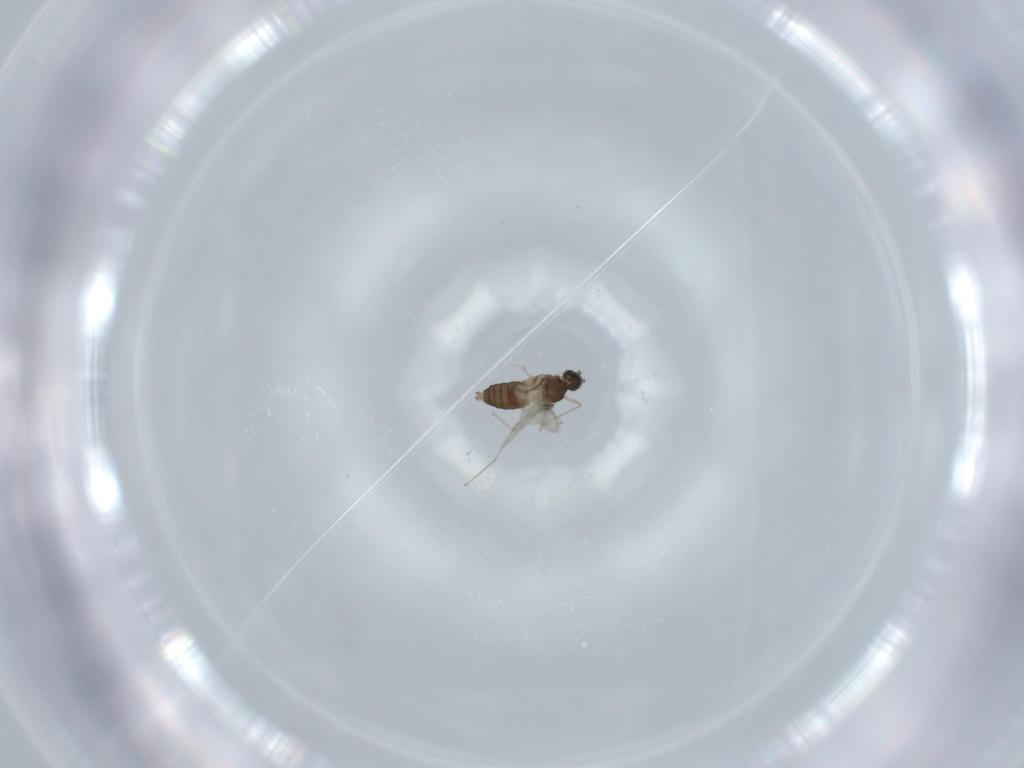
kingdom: Animalia
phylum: Arthropoda
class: Insecta
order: Diptera
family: Cecidomyiidae
